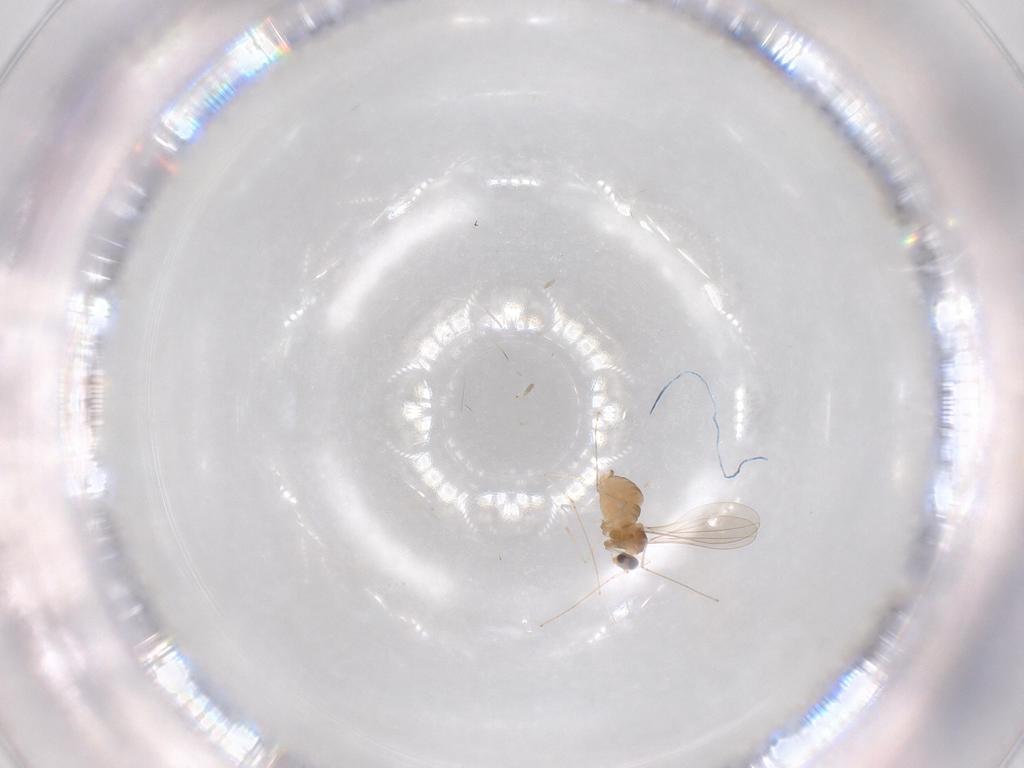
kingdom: Animalia
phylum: Arthropoda
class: Insecta
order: Diptera
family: Cecidomyiidae
